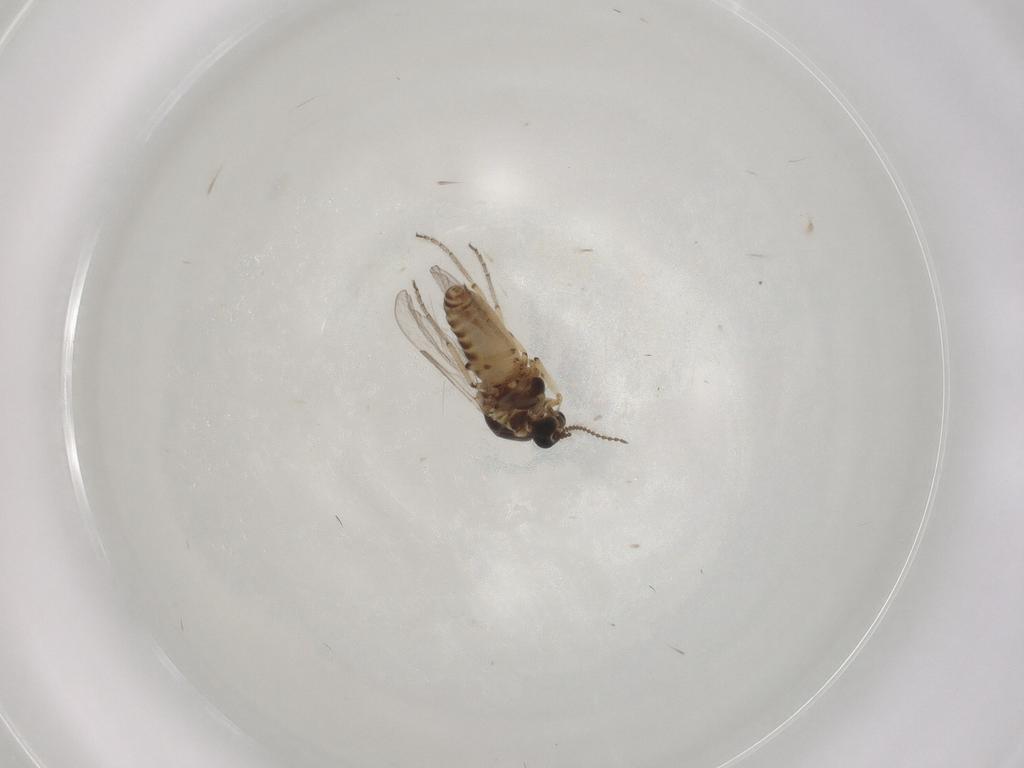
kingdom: Animalia
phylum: Arthropoda
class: Insecta
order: Diptera
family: Ceratopogonidae
